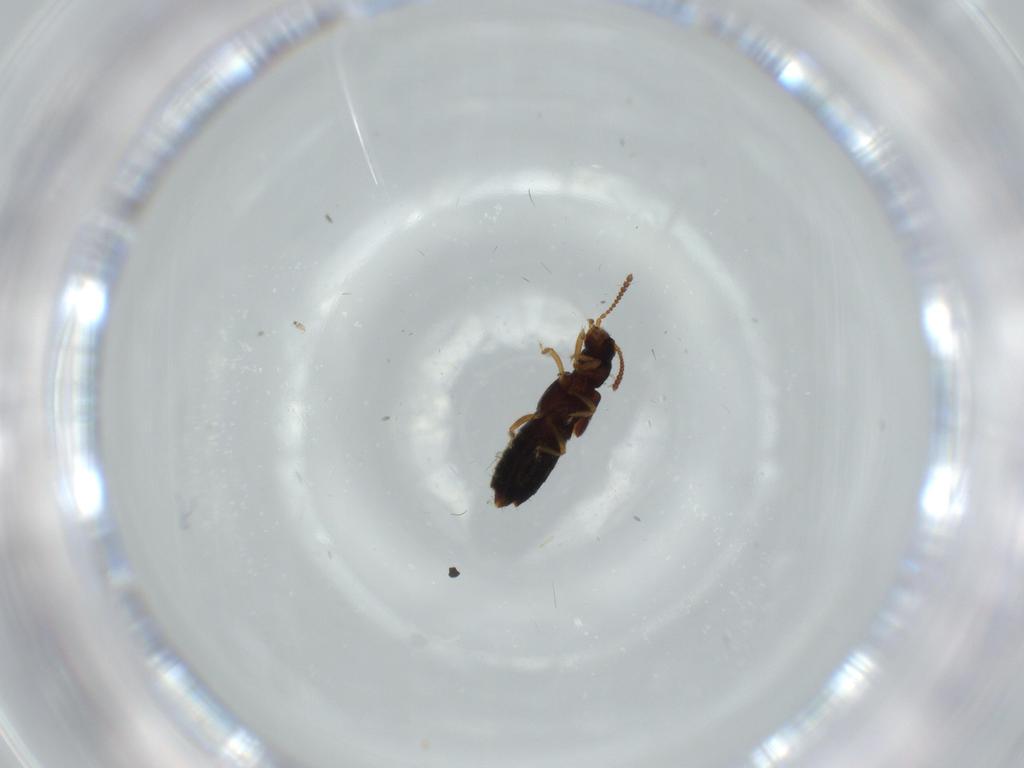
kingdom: Animalia
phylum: Arthropoda
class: Insecta
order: Coleoptera
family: Staphylinidae
